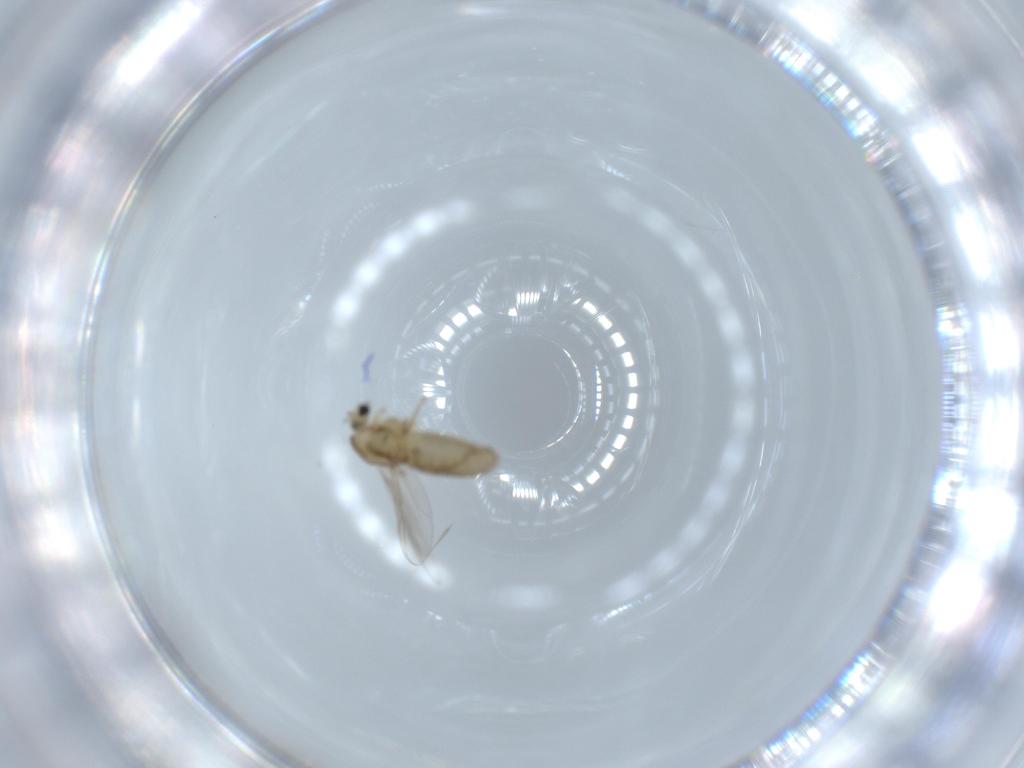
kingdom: Animalia
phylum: Arthropoda
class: Insecta
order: Diptera
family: Chironomidae
